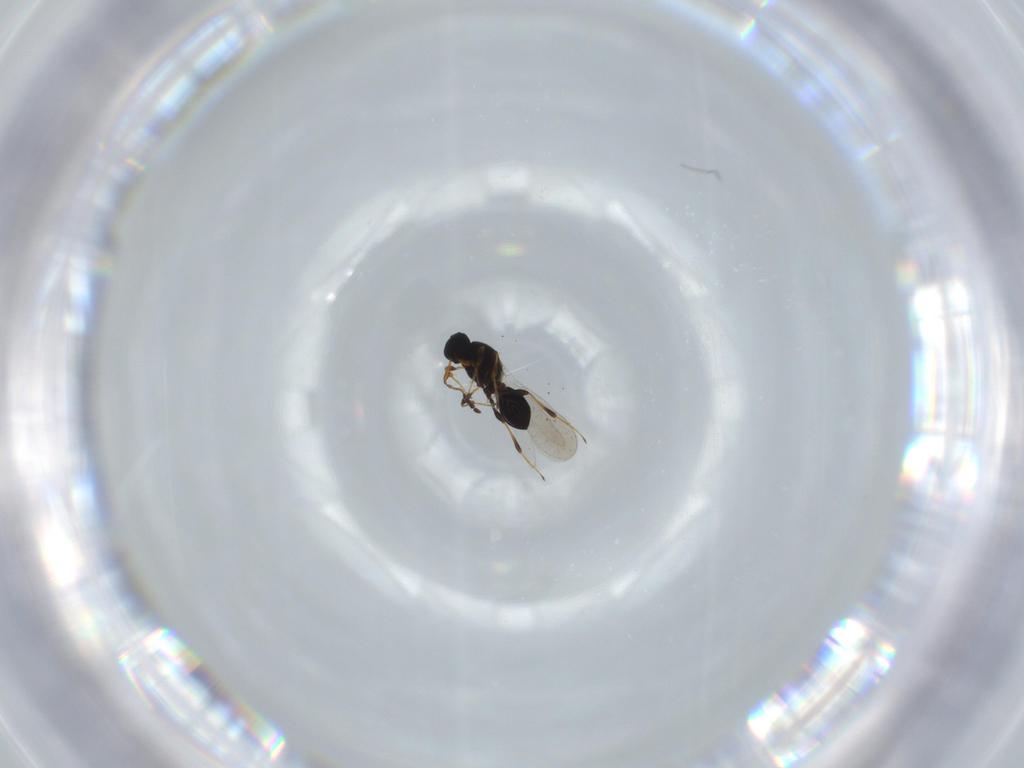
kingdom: Animalia
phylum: Arthropoda
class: Insecta
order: Hymenoptera
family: Platygastridae
